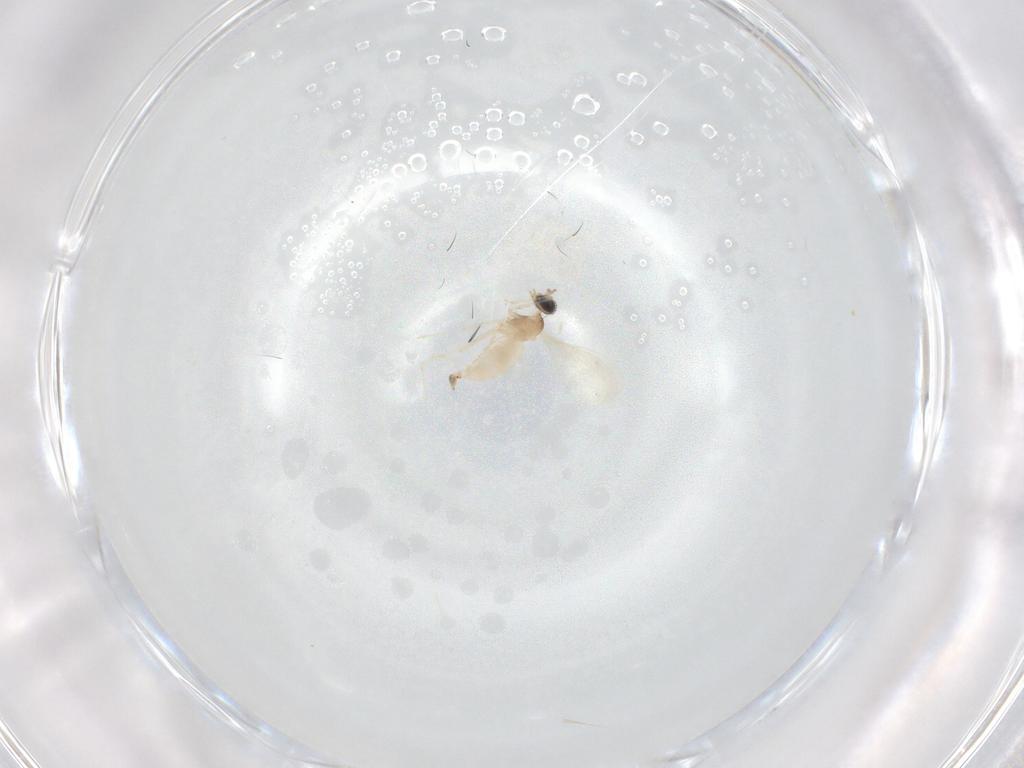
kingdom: Animalia
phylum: Arthropoda
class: Insecta
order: Diptera
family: Cecidomyiidae
